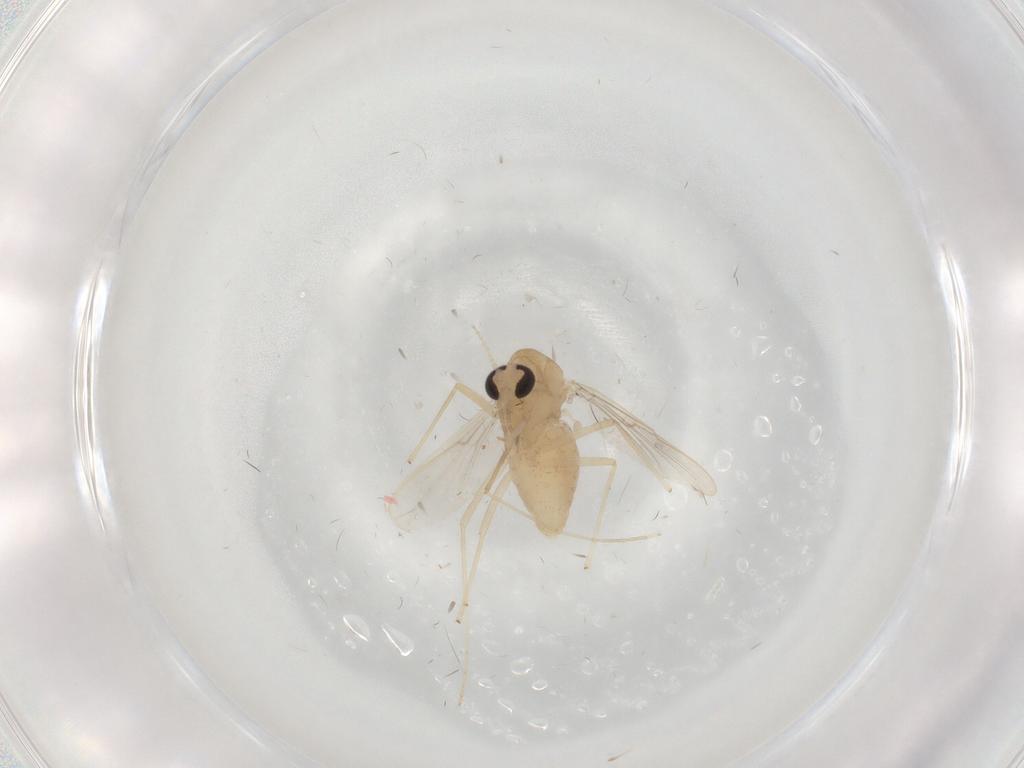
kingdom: Animalia
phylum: Arthropoda
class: Insecta
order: Diptera
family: Chironomidae
